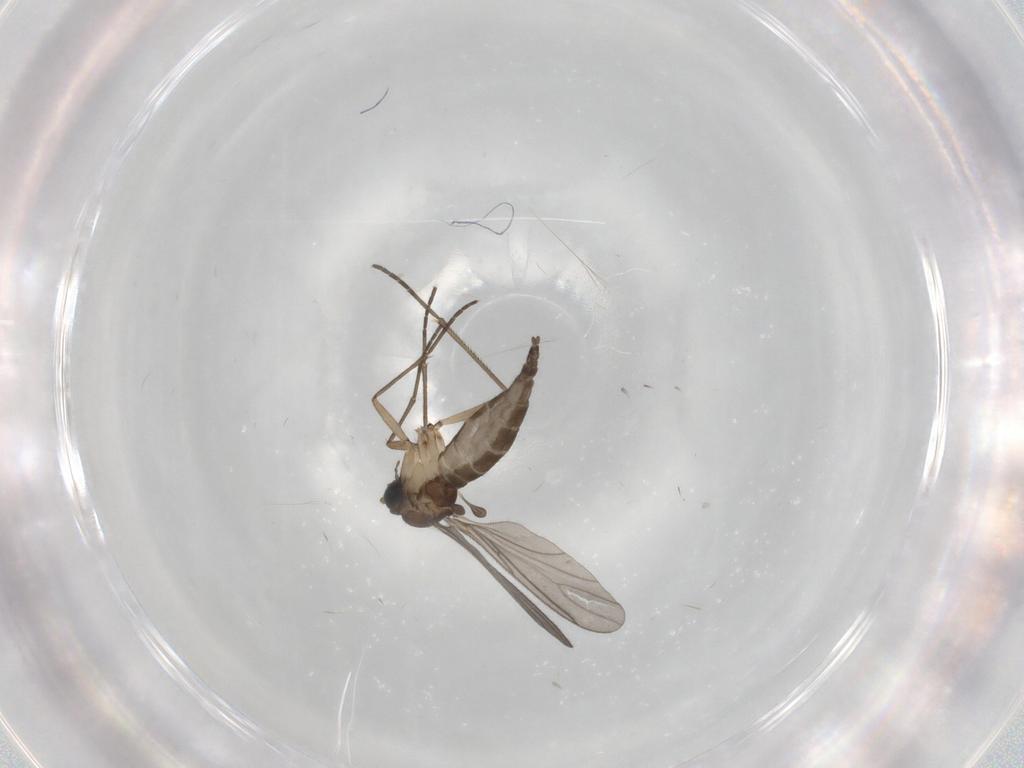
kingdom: Animalia
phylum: Arthropoda
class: Insecta
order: Diptera
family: Sciaridae
